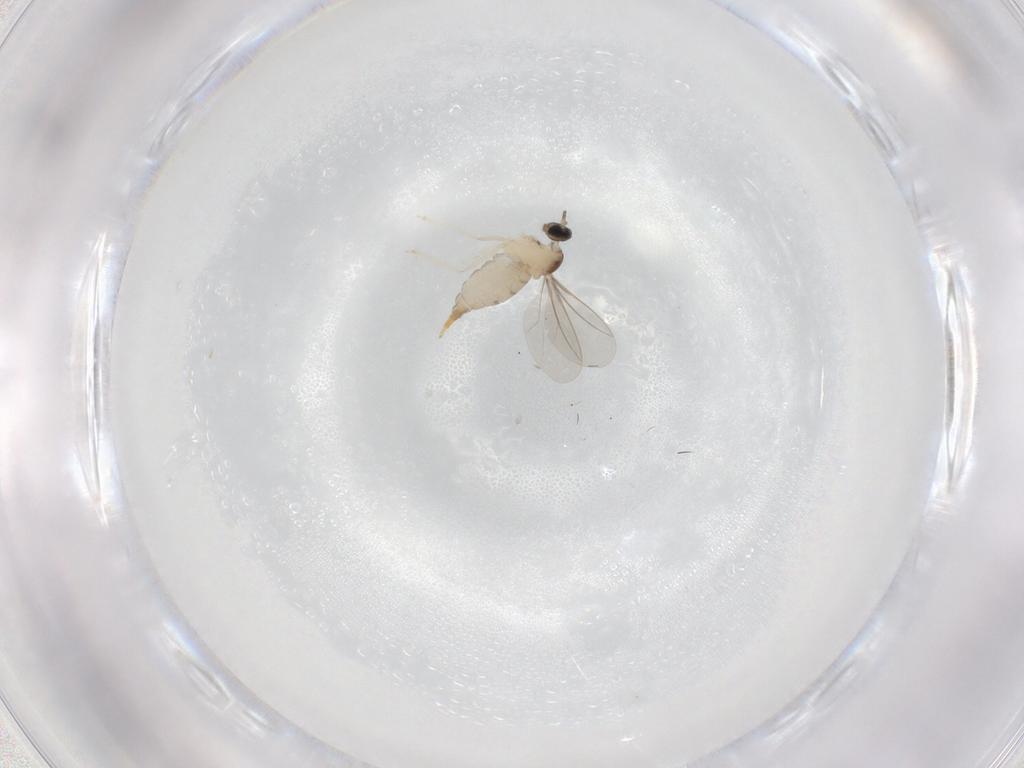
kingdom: Animalia
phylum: Arthropoda
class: Insecta
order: Diptera
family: Cecidomyiidae
